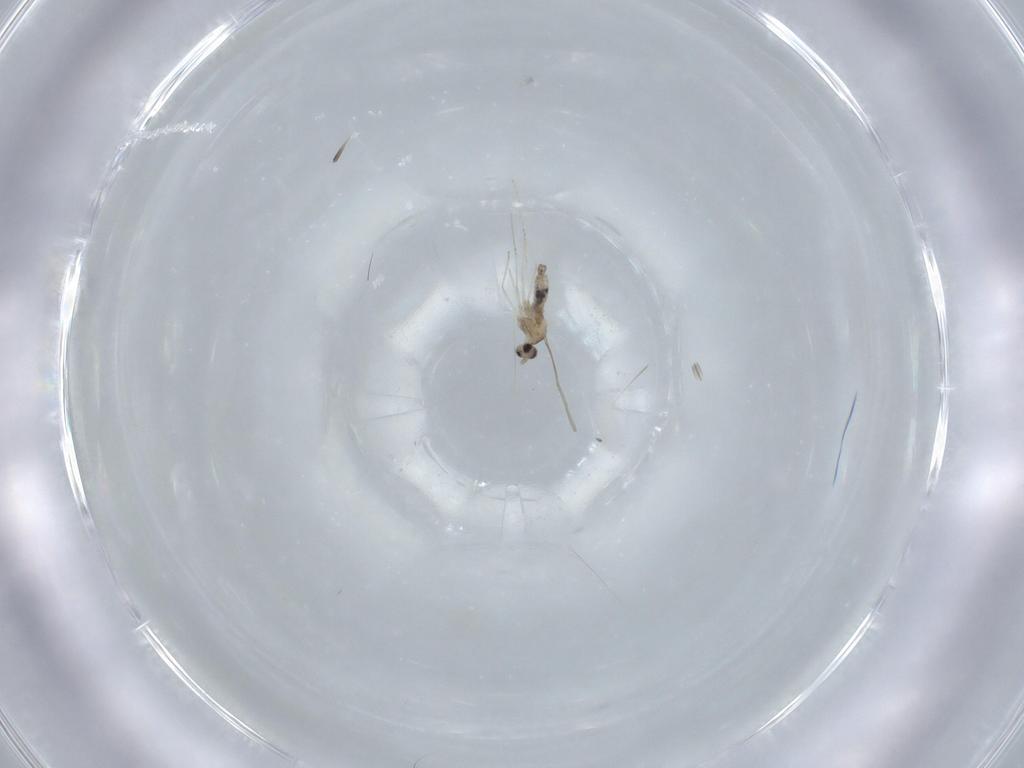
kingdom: Animalia
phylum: Arthropoda
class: Insecta
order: Diptera
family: Cecidomyiidae
